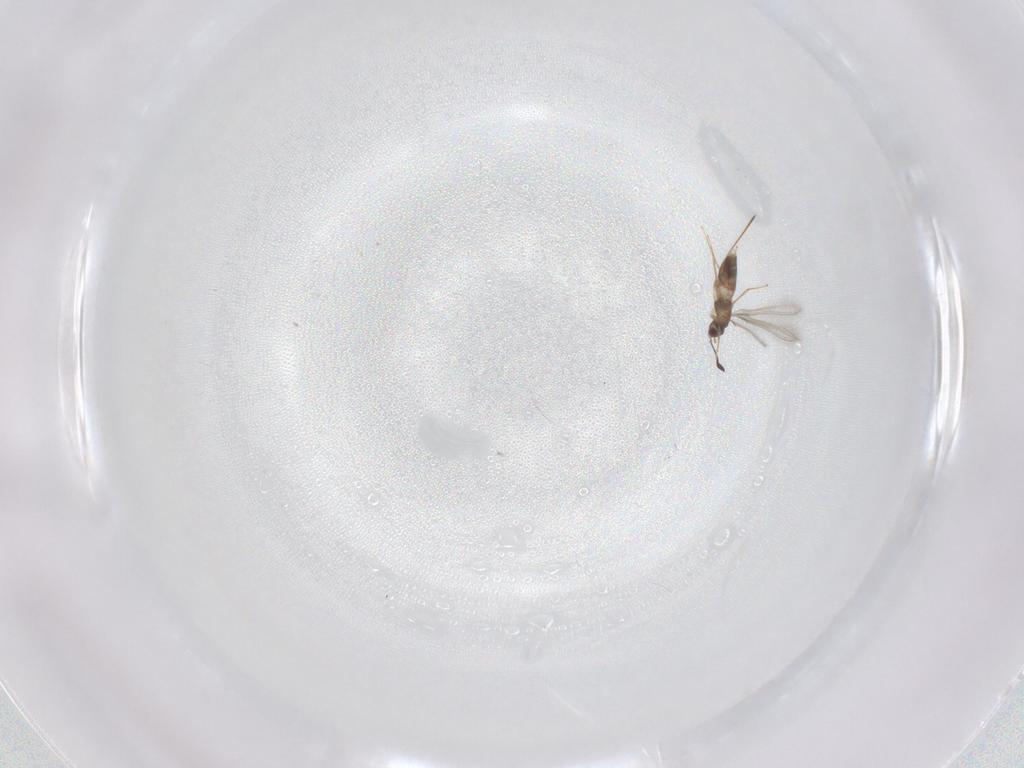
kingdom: Animalia
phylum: Arthropoda
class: Insecta
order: Hymenoptera
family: Mymaridae
